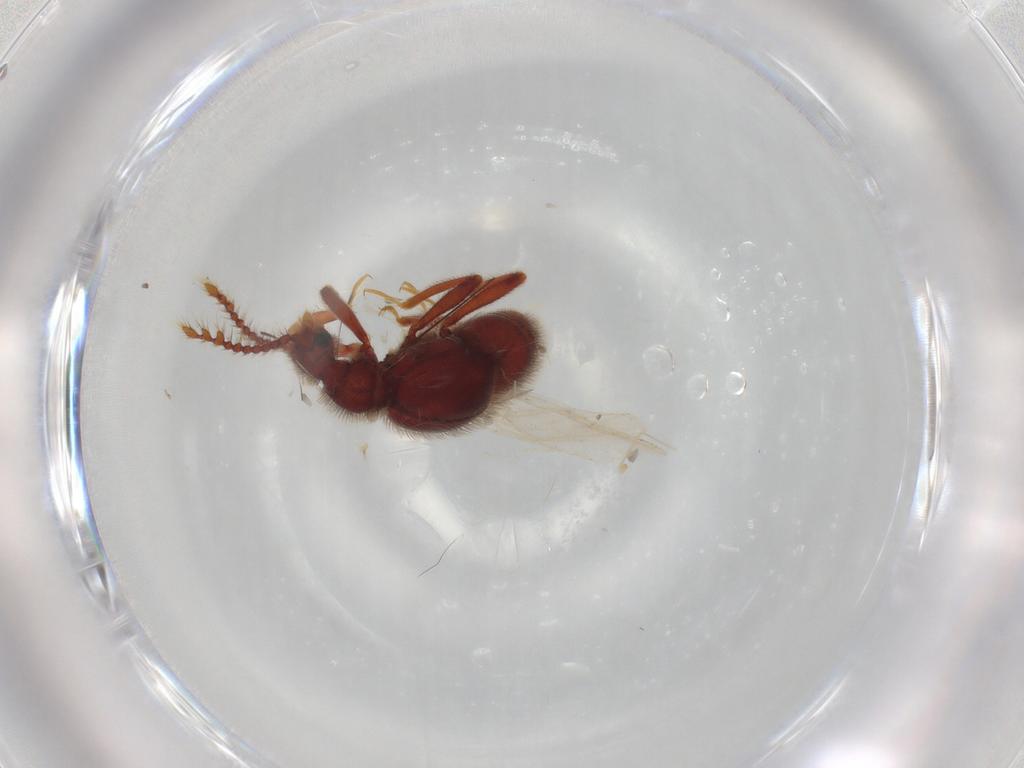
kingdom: Animalia
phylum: Arthropoda
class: Insecta
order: Coleoptera
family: Staphylinidae
